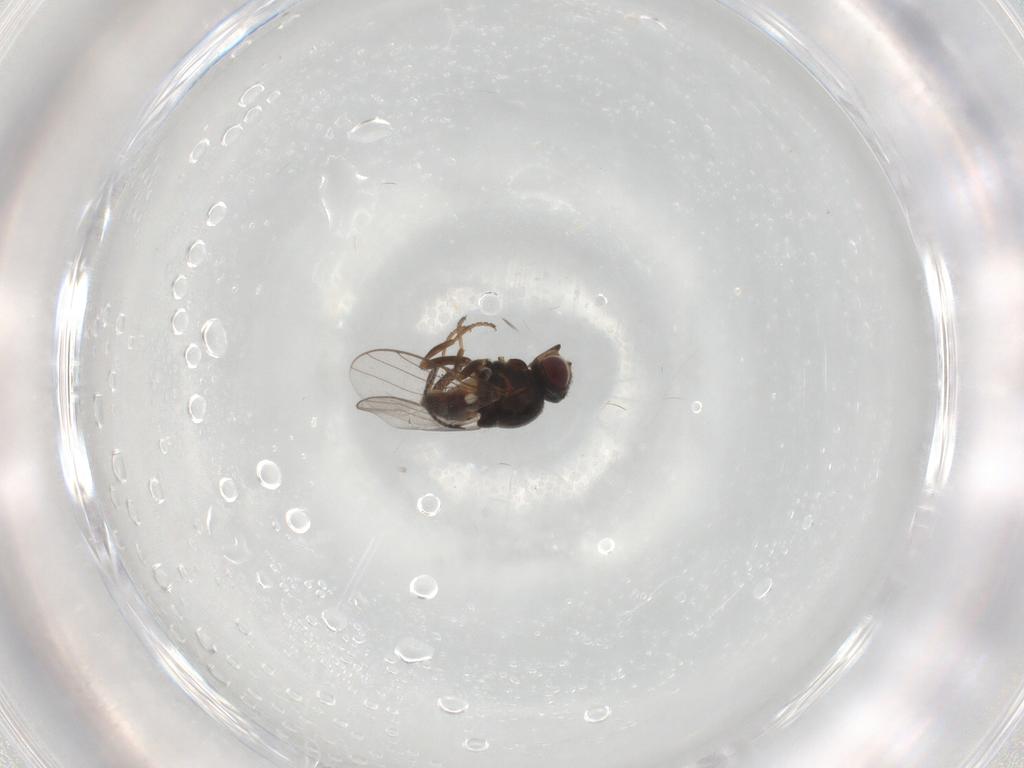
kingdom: Animalia
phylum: Arthropoda
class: Insecta
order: Diptera
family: Chloropidae
